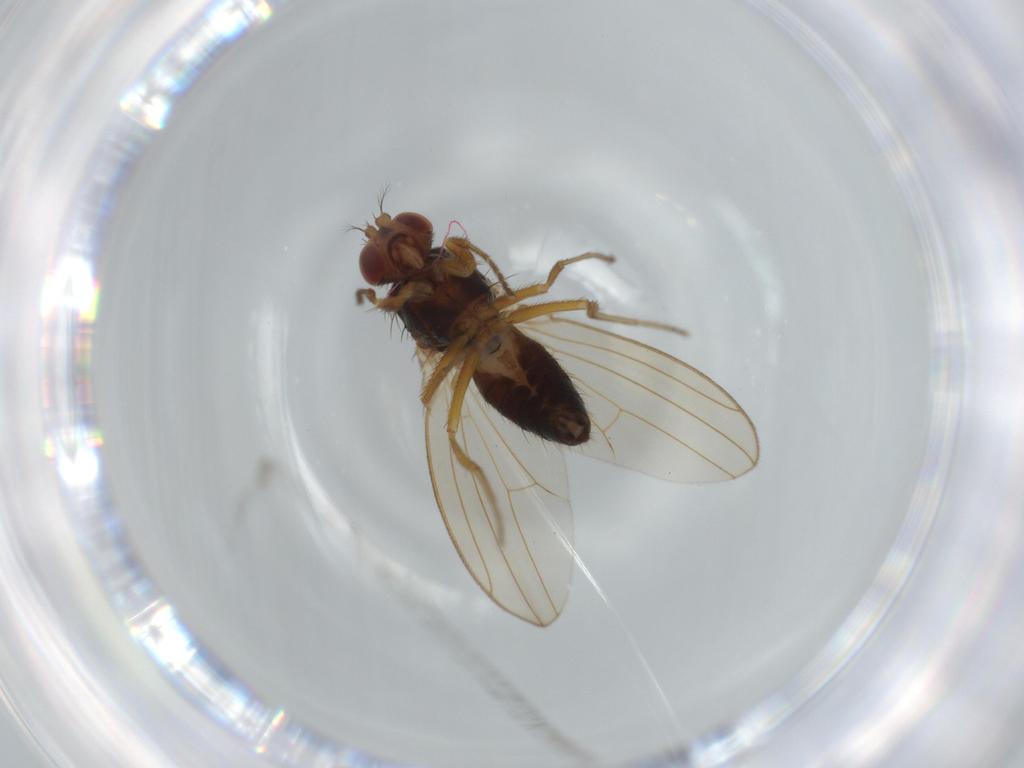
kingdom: Animalia
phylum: Arthropoda
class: Insecta
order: Diptera
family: Drosophilidae
